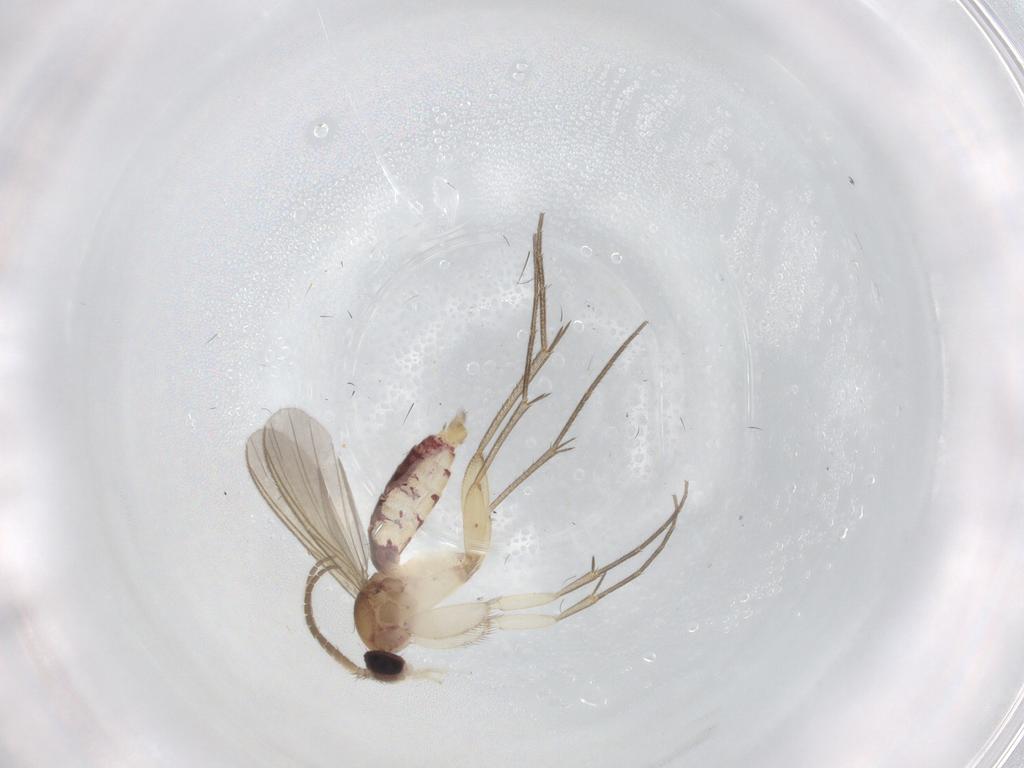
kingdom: Animalia
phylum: Arthropoda
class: Insecta
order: Diptera
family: Mycetophilidae
